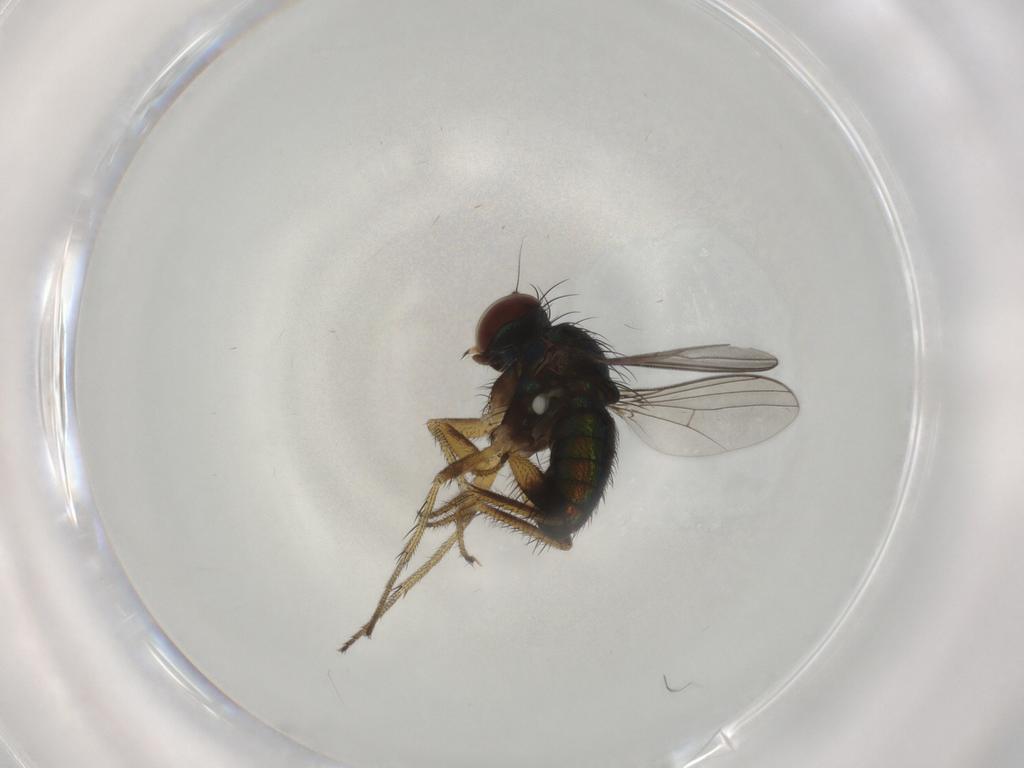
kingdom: Animalia
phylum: Arthropoda
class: Insecta
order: Diptera
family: Dolichopodidae
